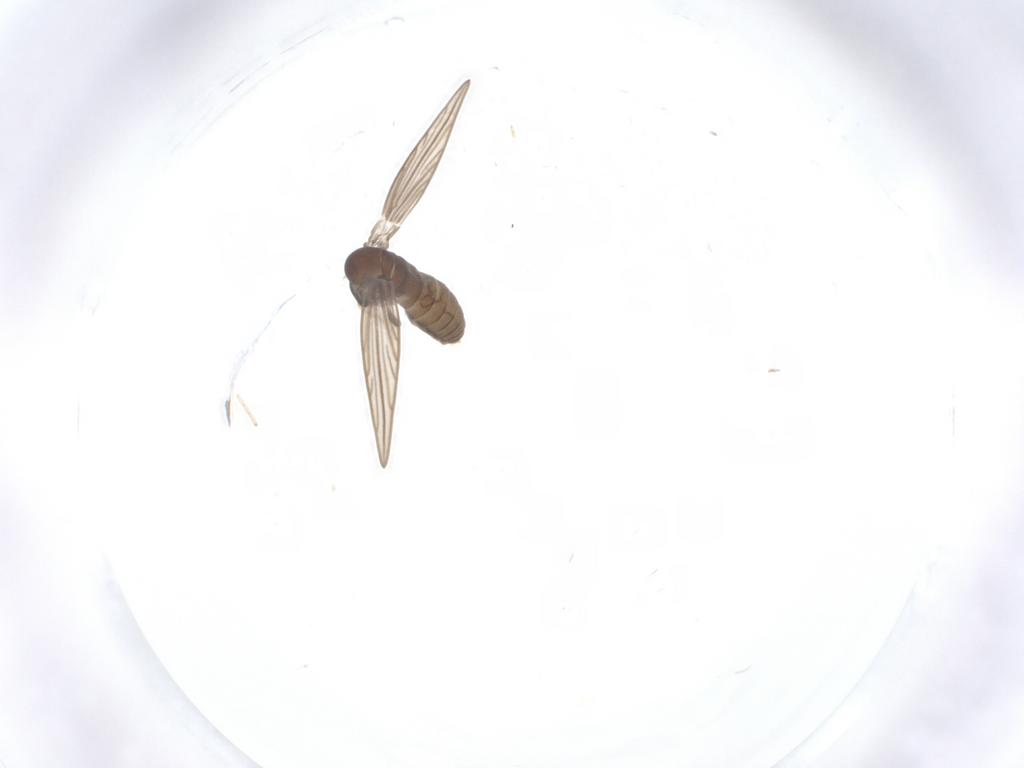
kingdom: Animalia
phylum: Arthropoda
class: Insecta
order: Diptera
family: Psychodidae
